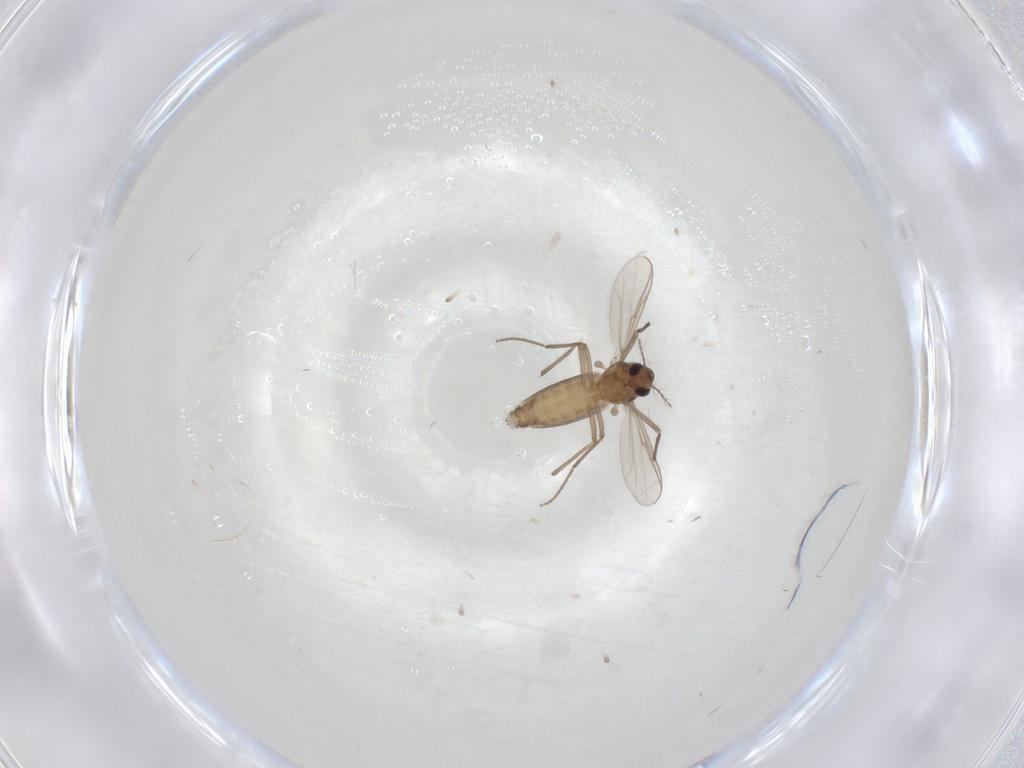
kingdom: Animalia
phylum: Arthropoda
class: Insecta
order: Diptera
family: Chironomidae
